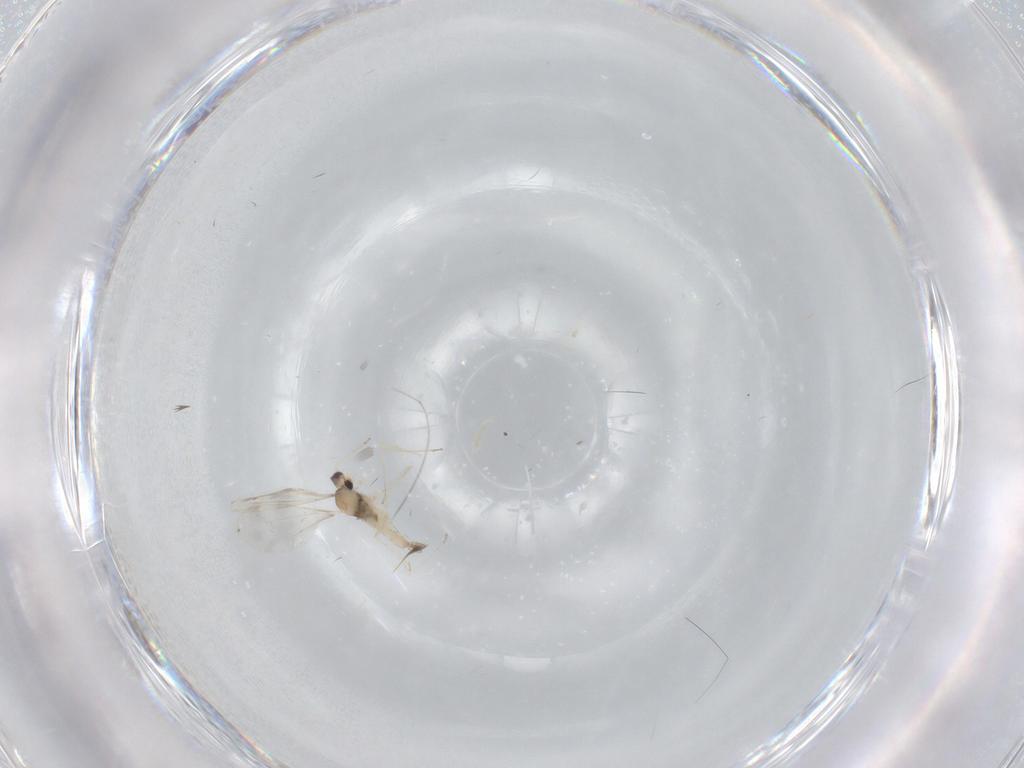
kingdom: Animalia
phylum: Arthropoda
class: Insecta
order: Diptera
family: Cecidomyiidae
